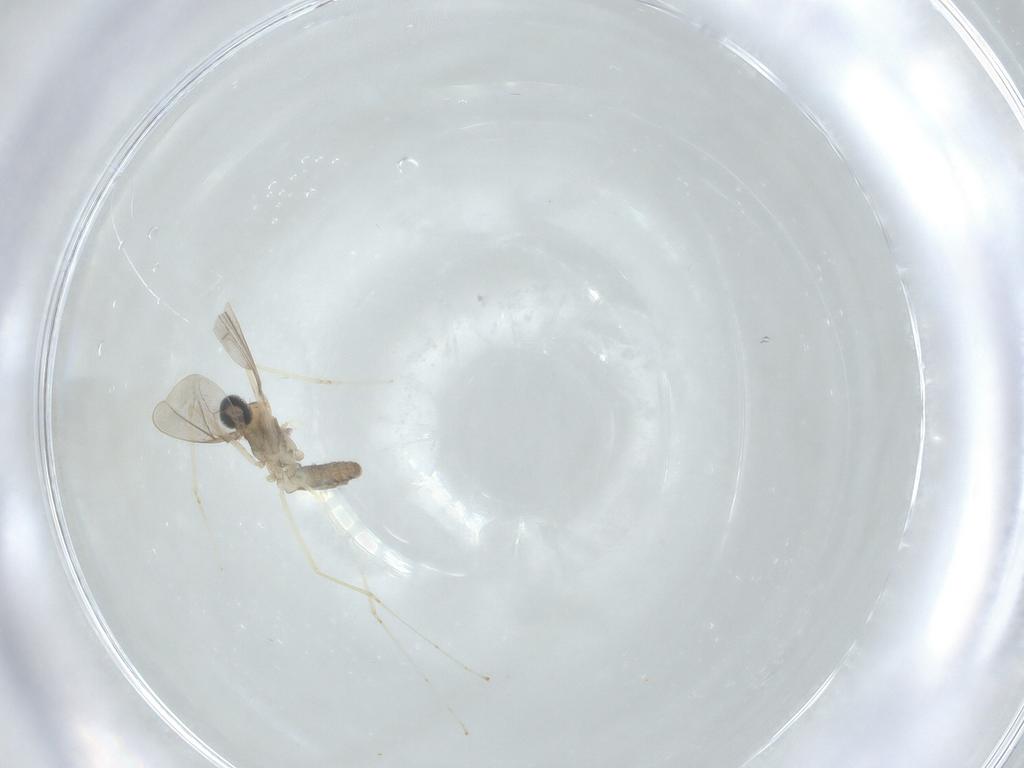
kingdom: Animalia
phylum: Arthropoda
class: Insecta
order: Diptera
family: Cecidomyiidae
